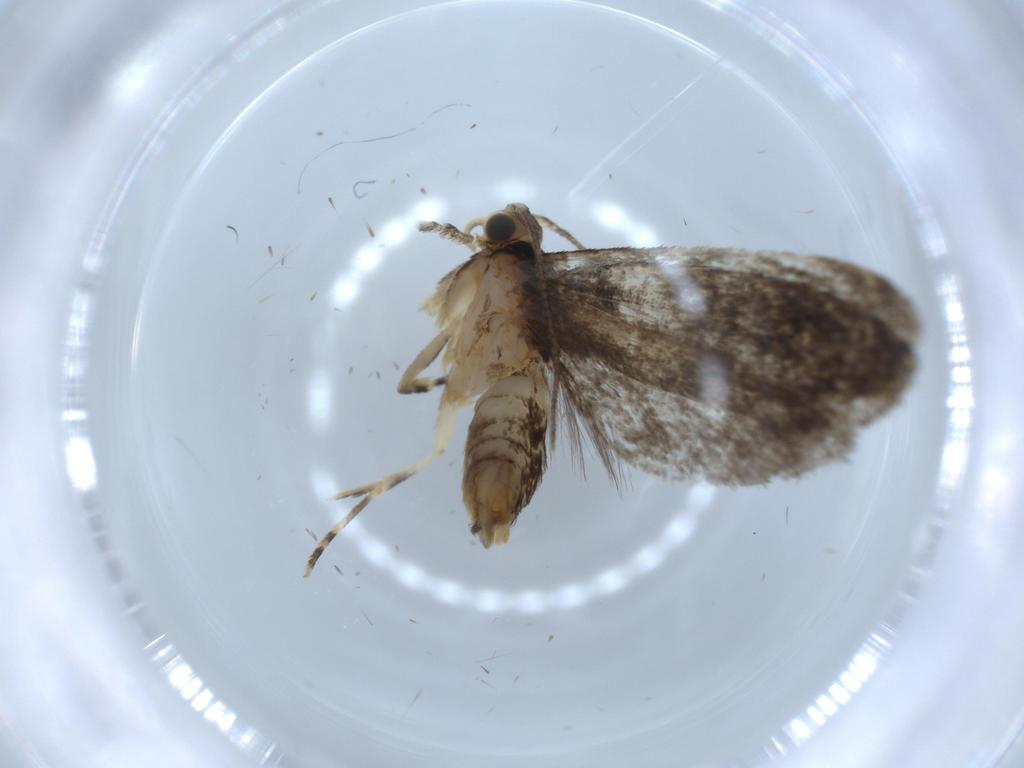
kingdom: Animalia
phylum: Arthropoda
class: Insecta
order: Lepidoptera
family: Tineidae
